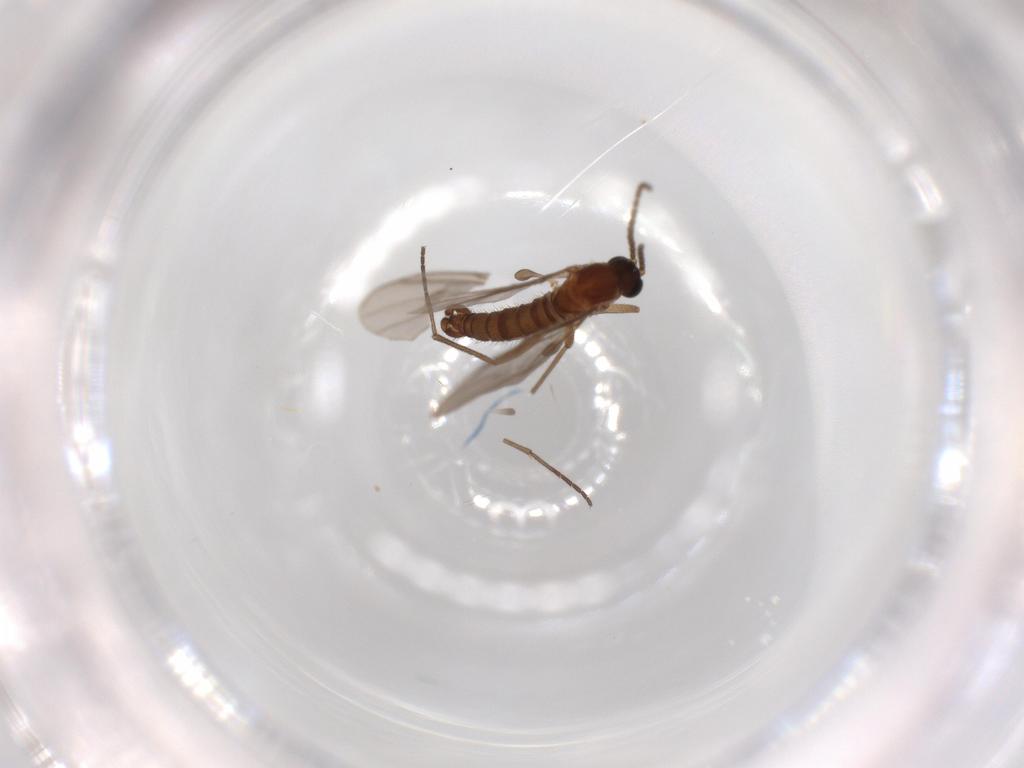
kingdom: Animalia
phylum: Arthropoda
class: Insecta
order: Diptera
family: Sciaridae
